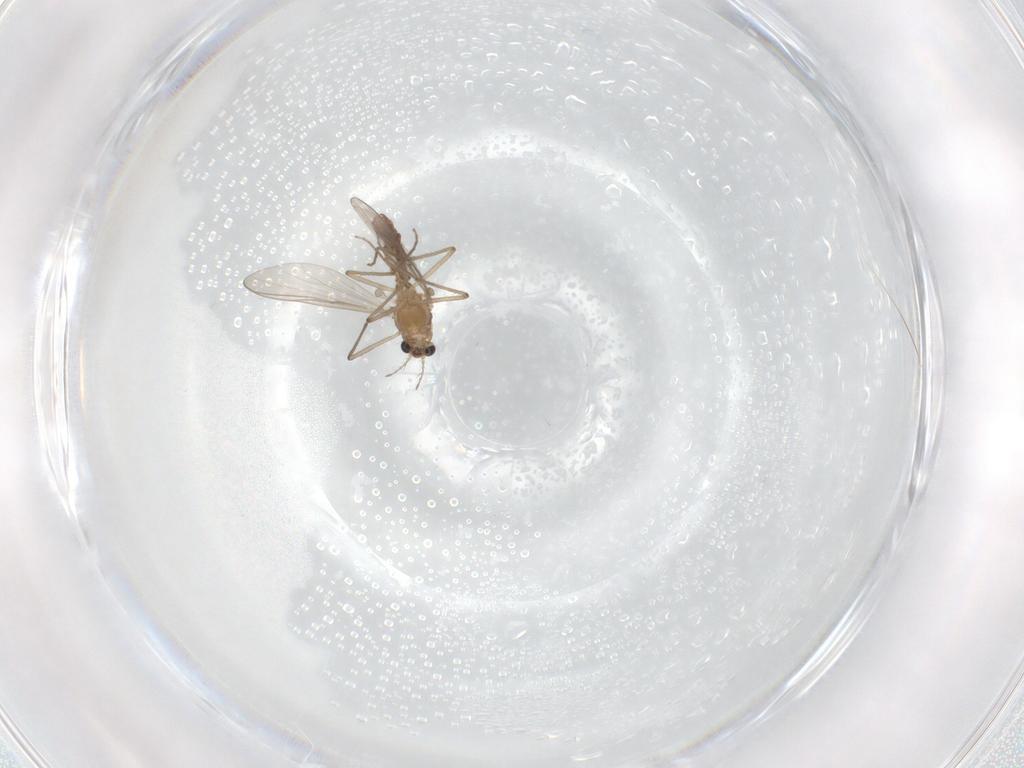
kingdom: Animalia
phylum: Arthropoda
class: Insecta
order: Diptera
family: Chironomidae
